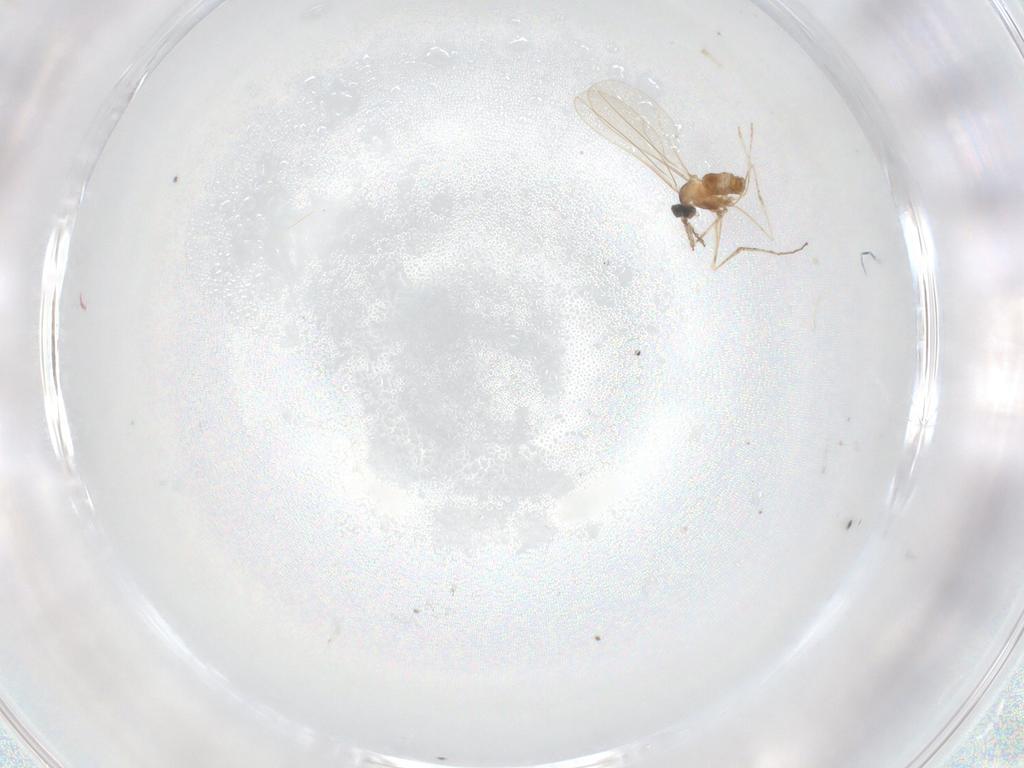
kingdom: Animalia
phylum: Arthropoda
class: Insecta
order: Diptera
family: Cecidomyiidae
